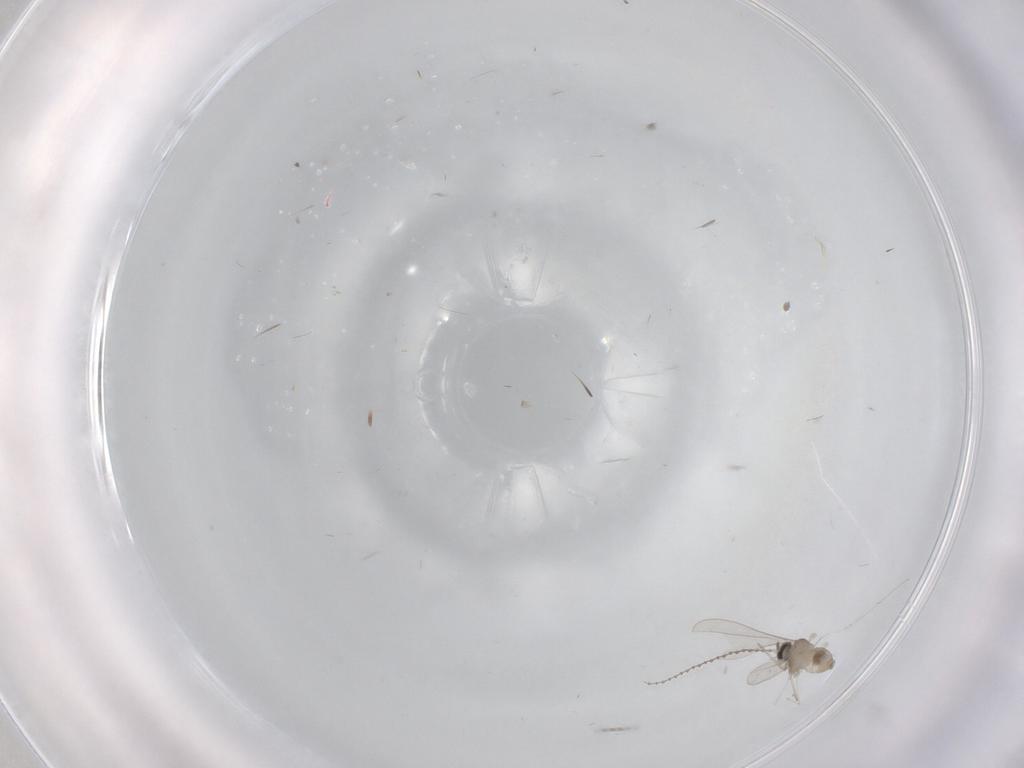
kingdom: Animalia
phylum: Arthropoda
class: Insecta
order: Diptera
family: Cecidomyiidae
